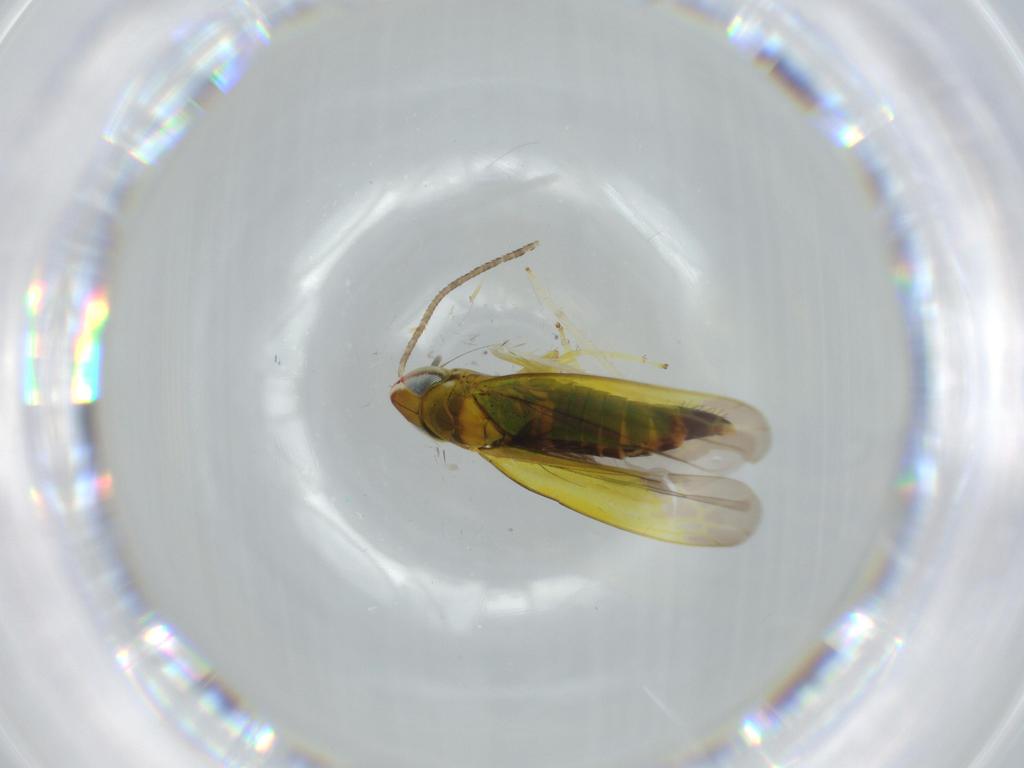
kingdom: Animalia
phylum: Arthropoda
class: Insecta
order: Hemiptera
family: Cicadellidae
